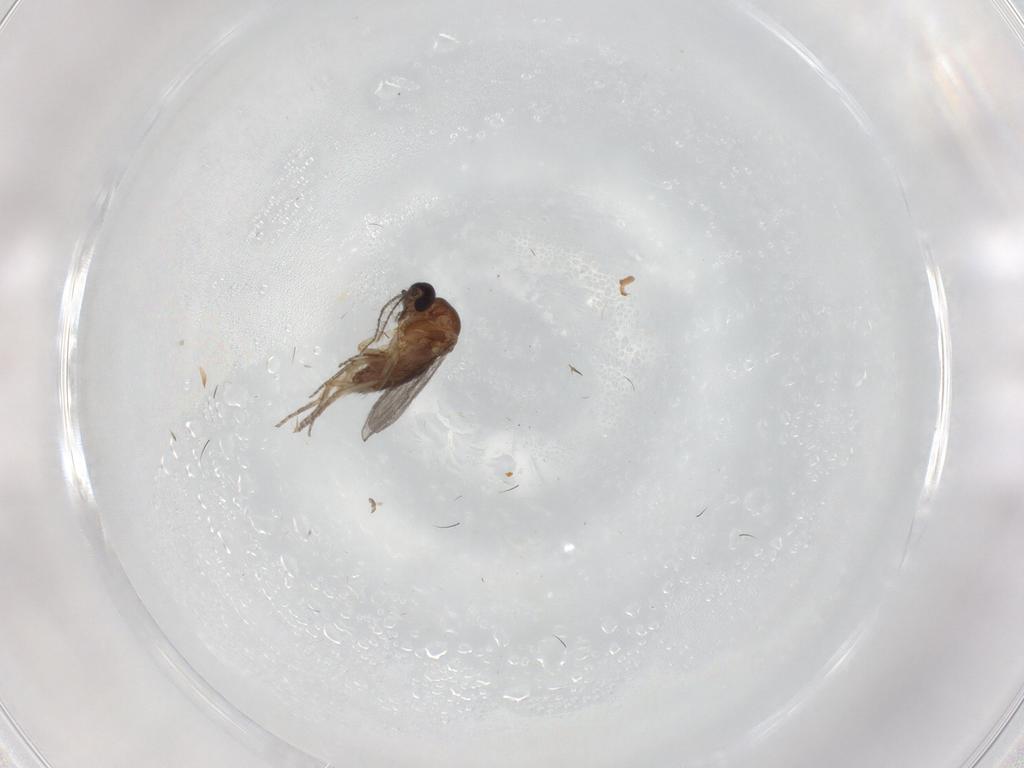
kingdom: Animalia
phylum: Arthropoda
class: Insecta
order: Diptera
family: Ceratopogonidae
